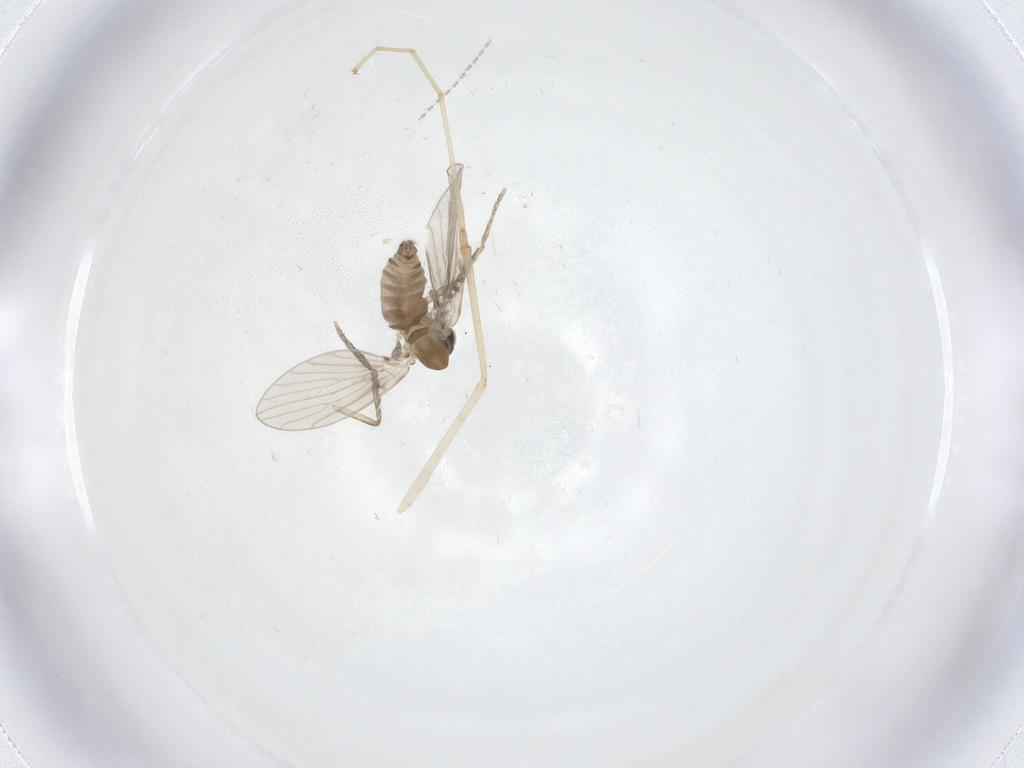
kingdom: Animalia
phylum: Arthropoda
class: Insecta
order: Diptera
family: Psychodidae
